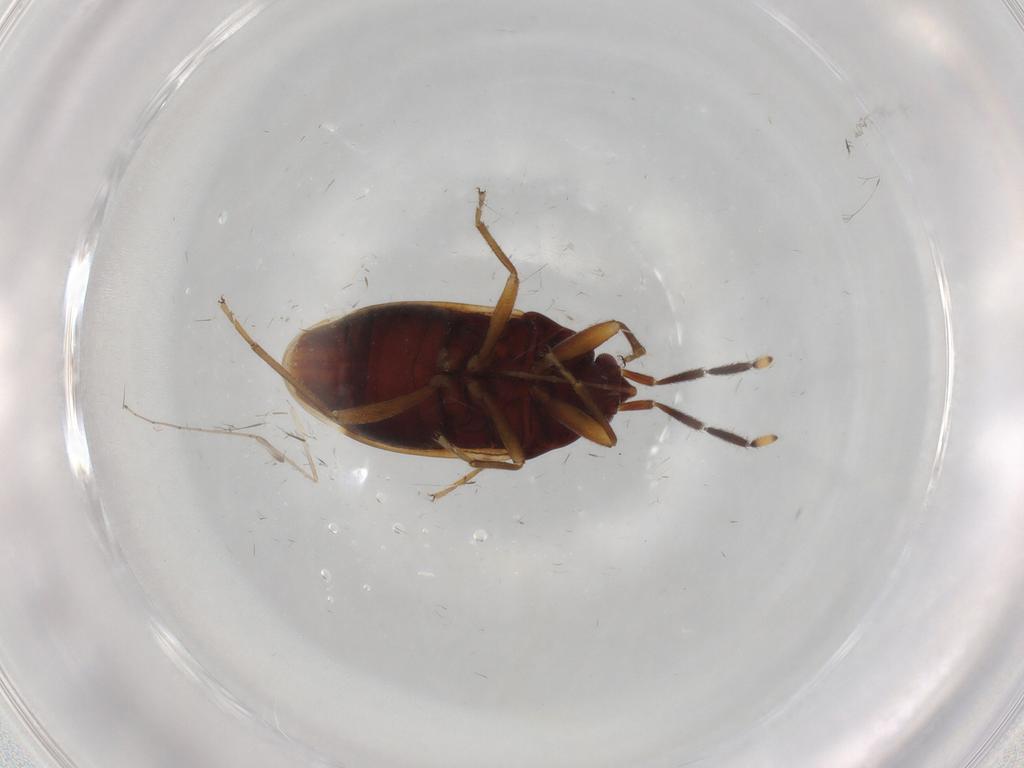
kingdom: Animalia
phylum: Arthropoda
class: Insecta
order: Hemiptera
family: Rhyparochromidae
